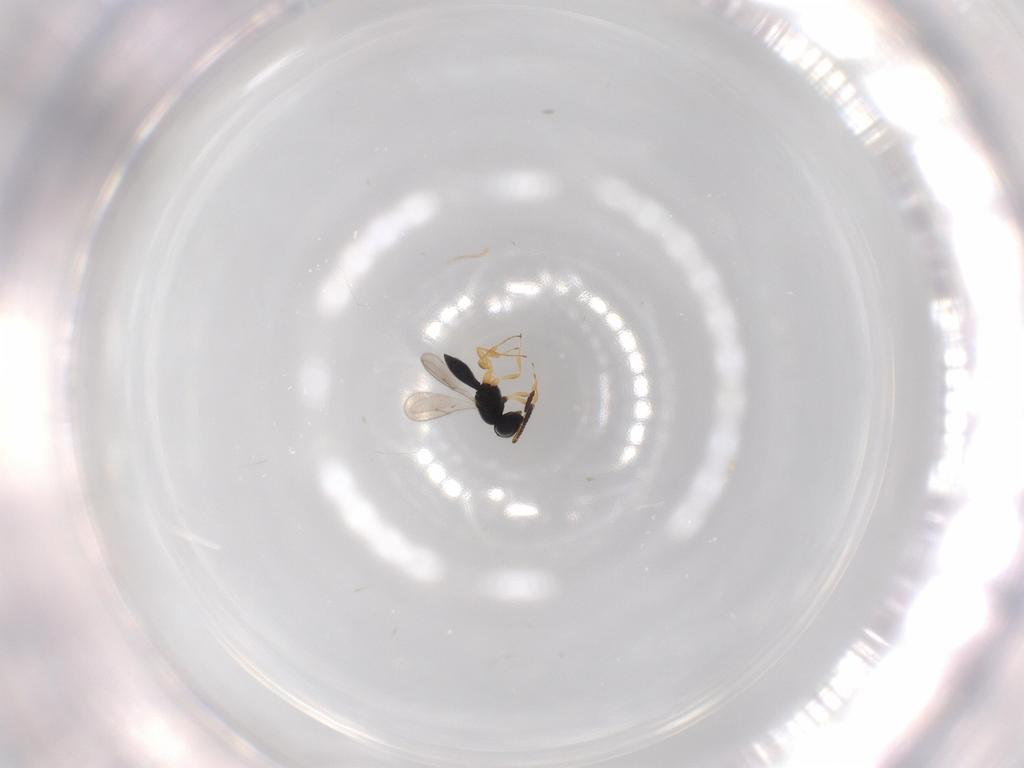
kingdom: Animalia
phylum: Arthropoda
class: Insecta
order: Hymenoptera
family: Scelionidae
